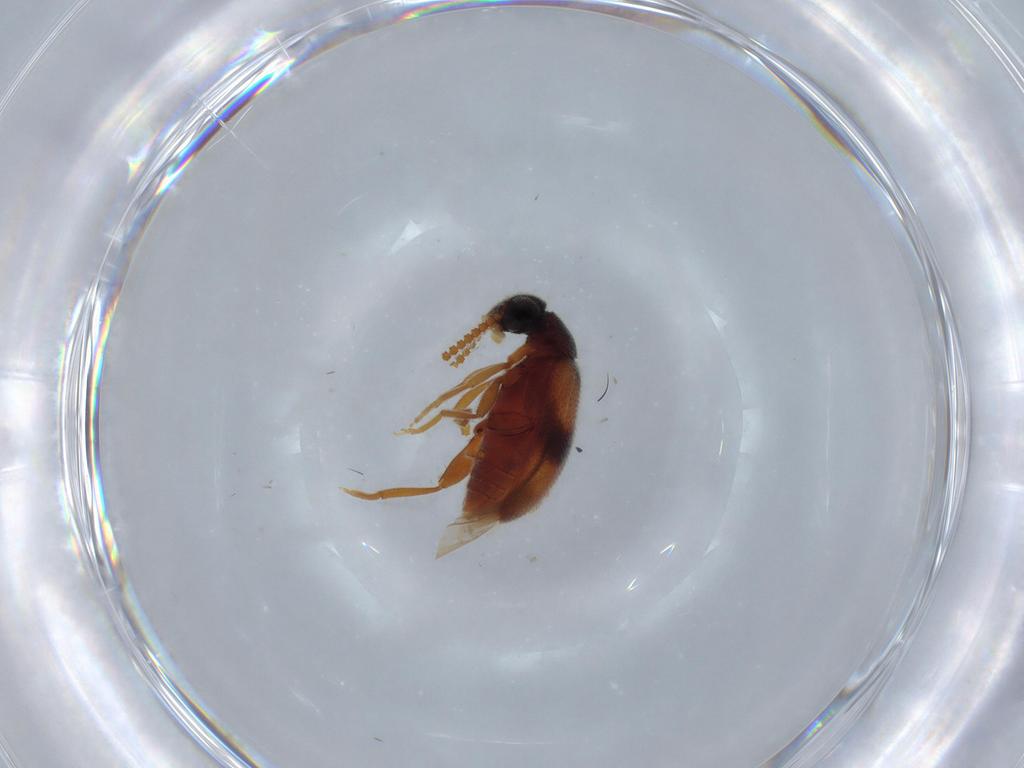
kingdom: Animalia
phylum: Arthropoda
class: Insecta
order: Coleoptera
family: Aderidae
